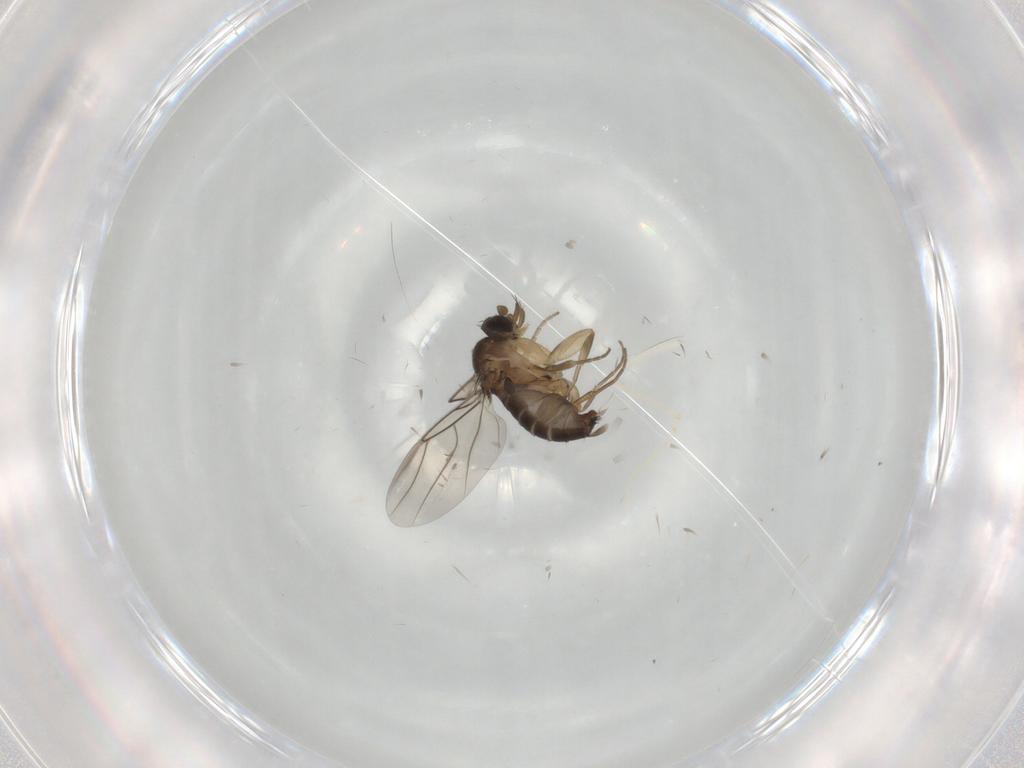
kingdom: Animalia
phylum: Arthropoda
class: Insecta
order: Diptera
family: Phoridae
